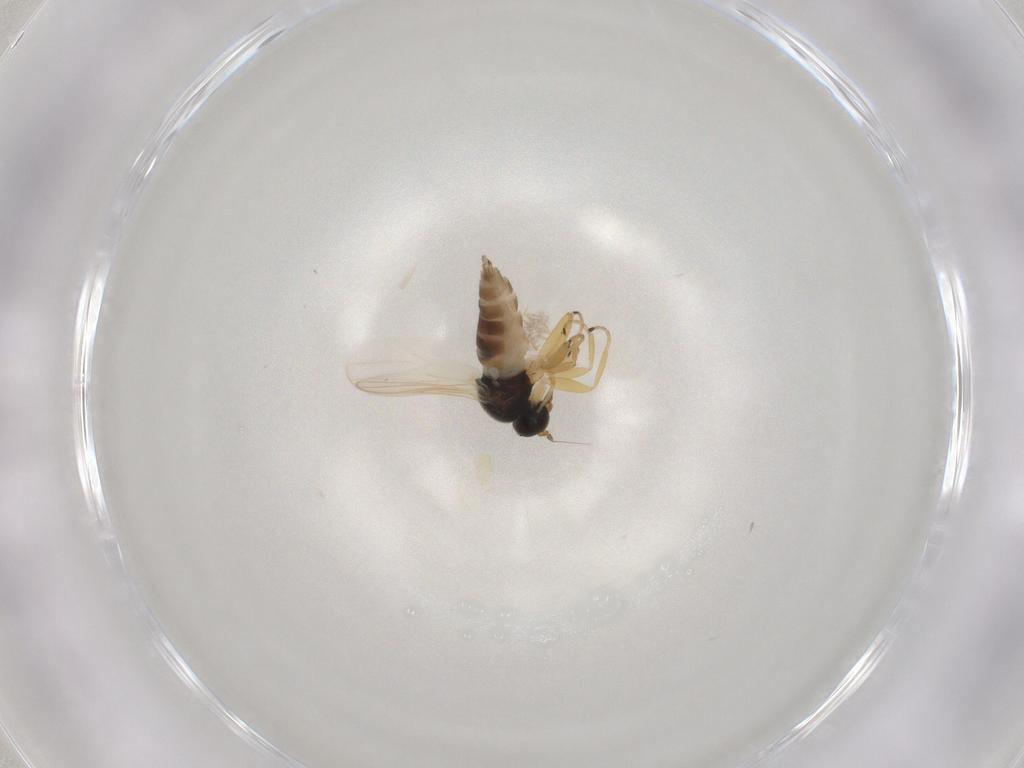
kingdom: Animalia
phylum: Arthropoda
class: Insecta
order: Diptera
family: Hybotidae
